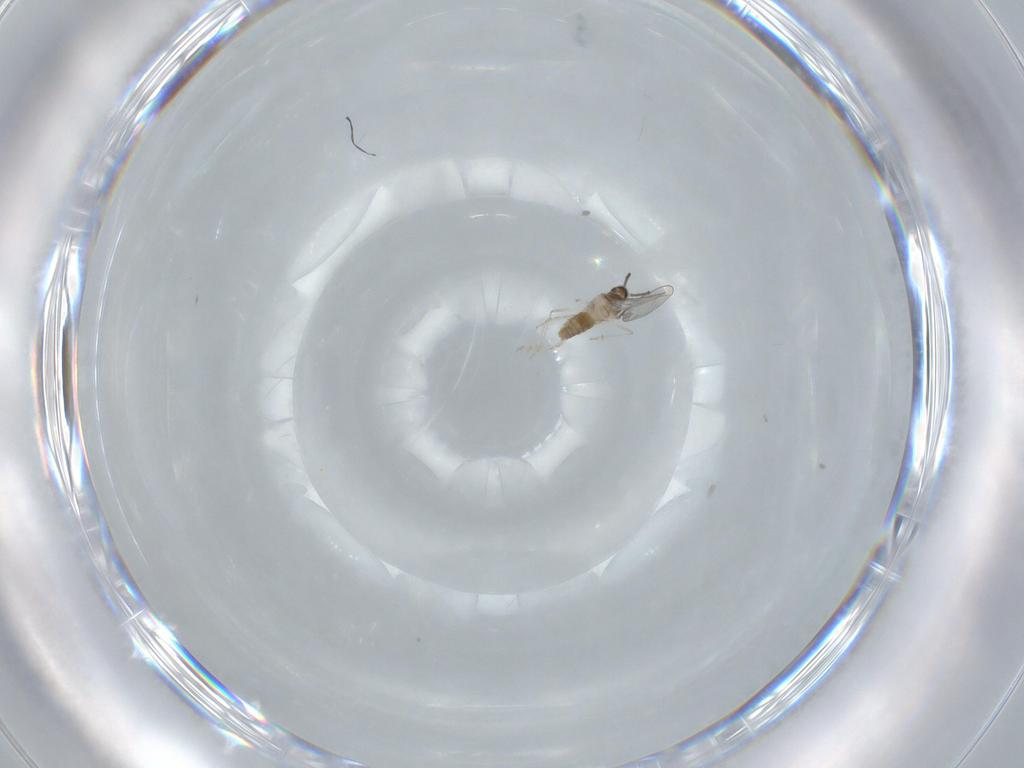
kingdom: Animalia
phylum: Arthropoda
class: Insecta
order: Diptera
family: Cecidomyiidae
